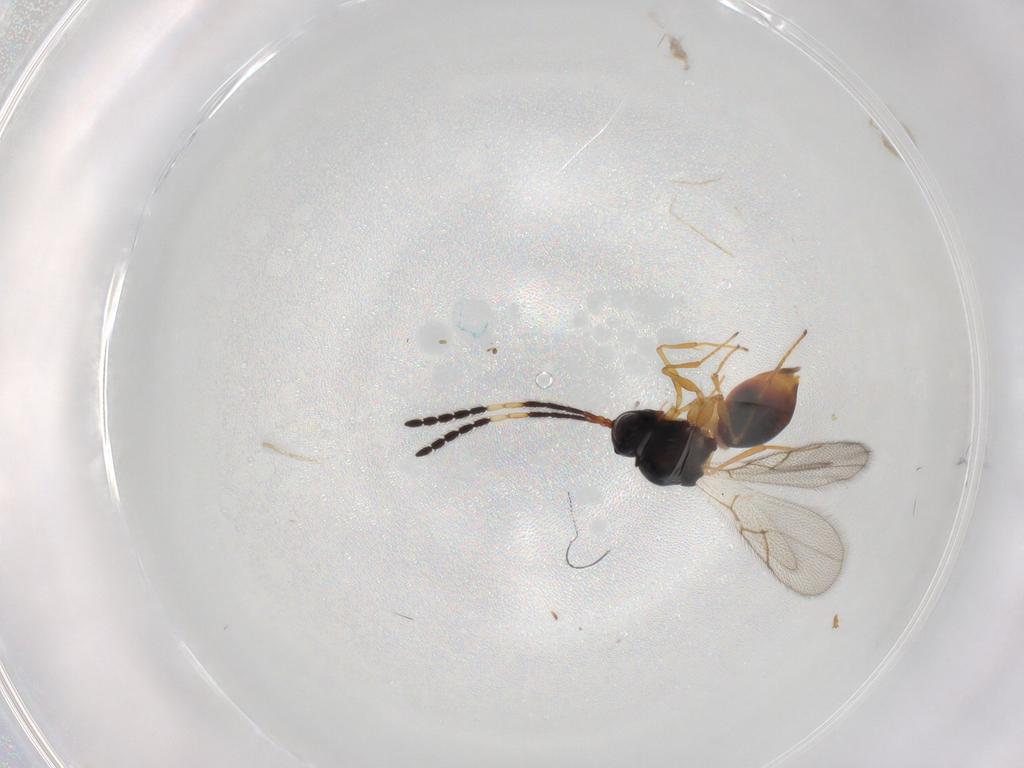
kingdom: Animalia
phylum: Arthropoda
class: Insecta
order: Hymenoptera
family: Figitidae
